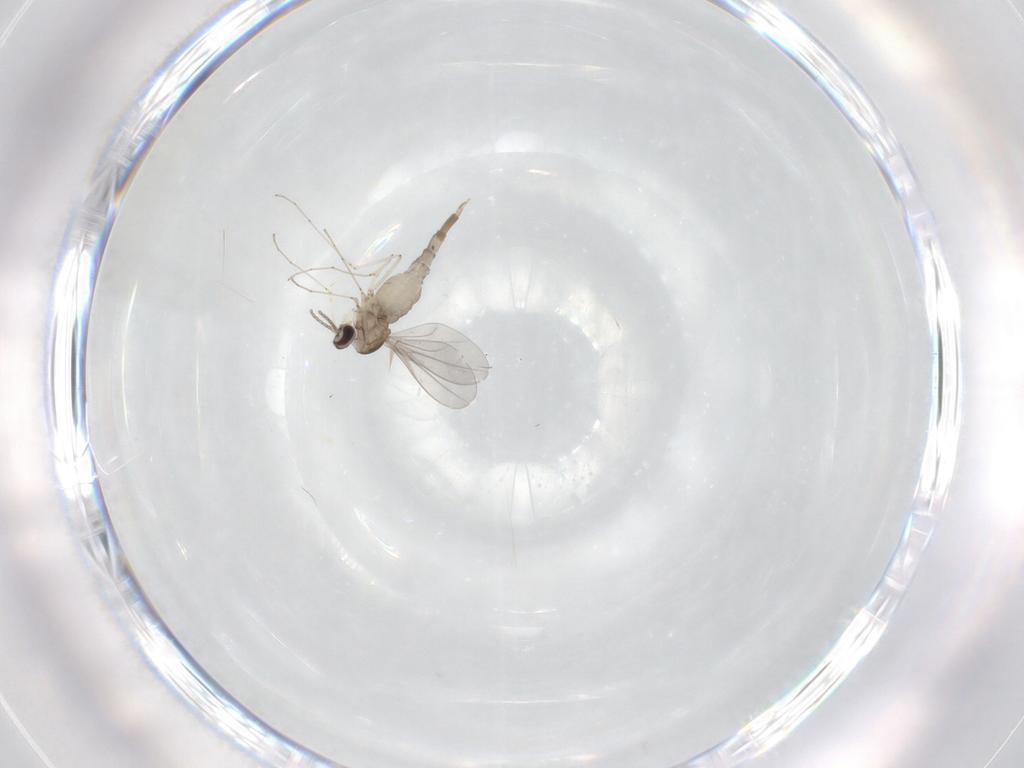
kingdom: Animalia
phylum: Arthropoda
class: Insecta
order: Diptera
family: Cecidomyiidae
